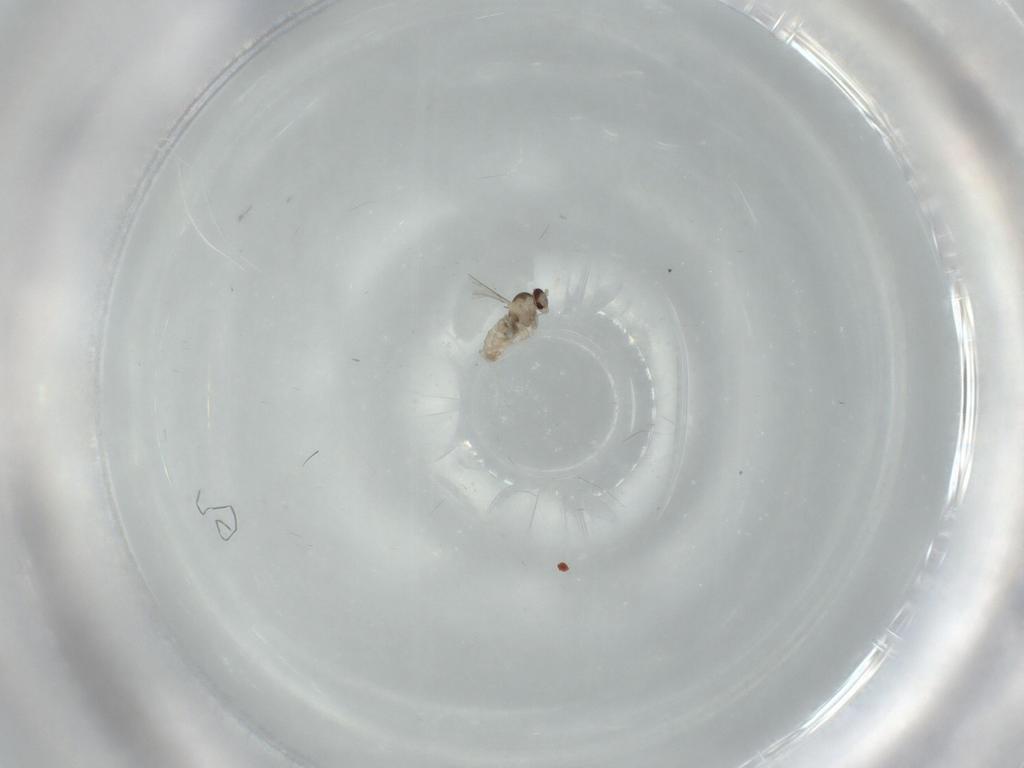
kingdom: Animalia
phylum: Arthropoda
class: Insecta
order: Diptera
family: Cecidomyiidae
